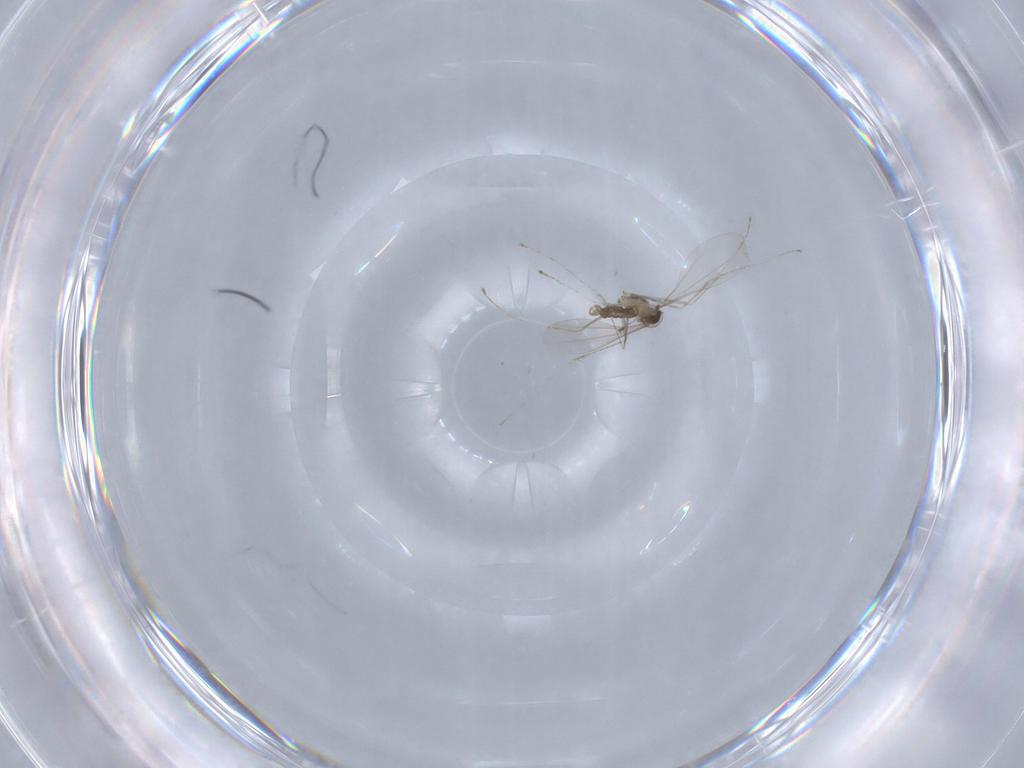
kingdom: Animalia
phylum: Arthropoda
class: Insecta
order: Diptera
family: Cecidomyiidae
